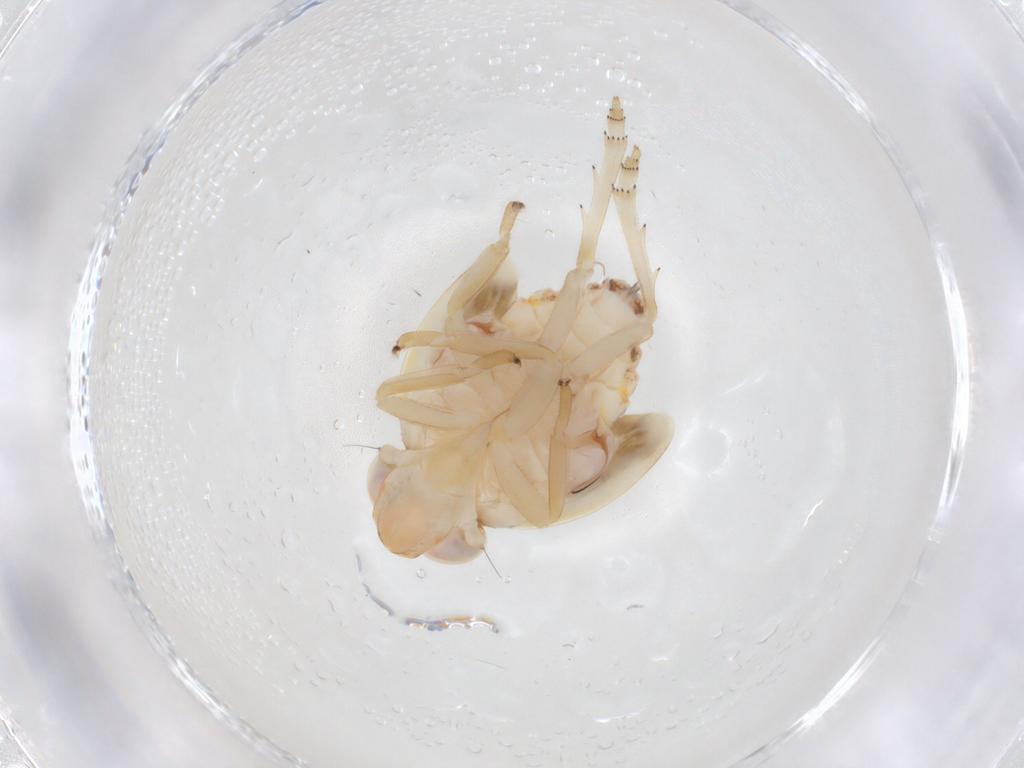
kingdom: Animalia
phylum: Arthropoda
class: Insecta
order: Hemiptera
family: Nogodinidae
